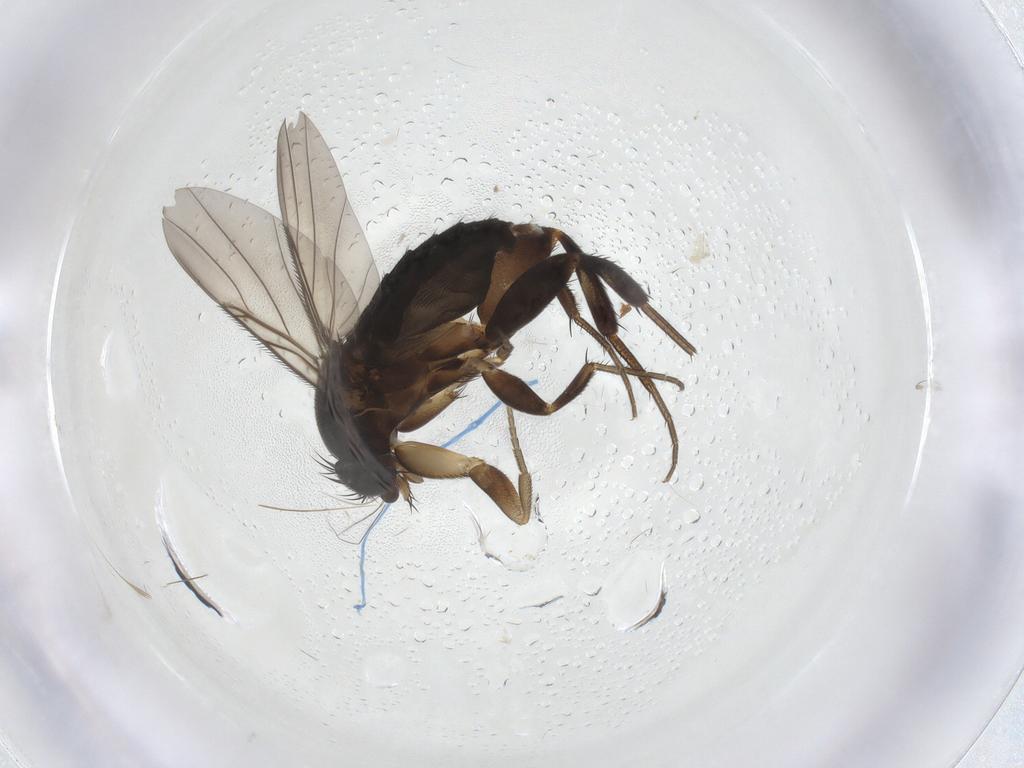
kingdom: Animalia
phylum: Arthropoda
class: Insecta
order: Diptera
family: Phoridae
